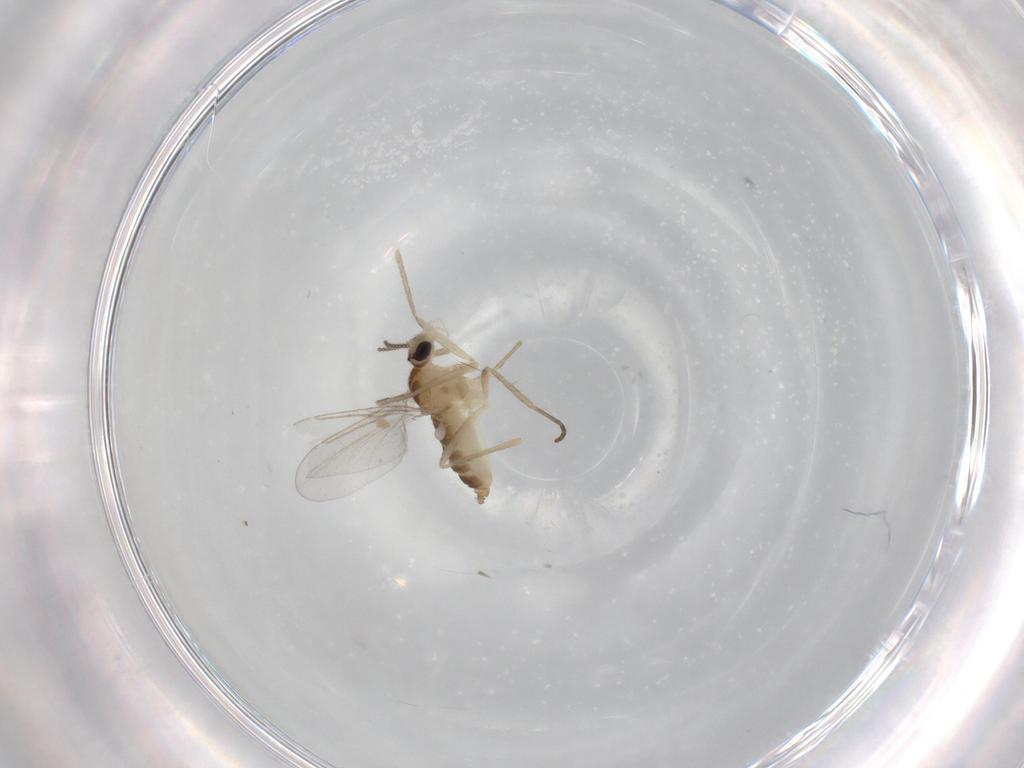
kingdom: Animalia
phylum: Arthropoda
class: Insecta
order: Diptera
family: Cecidomyiidae
